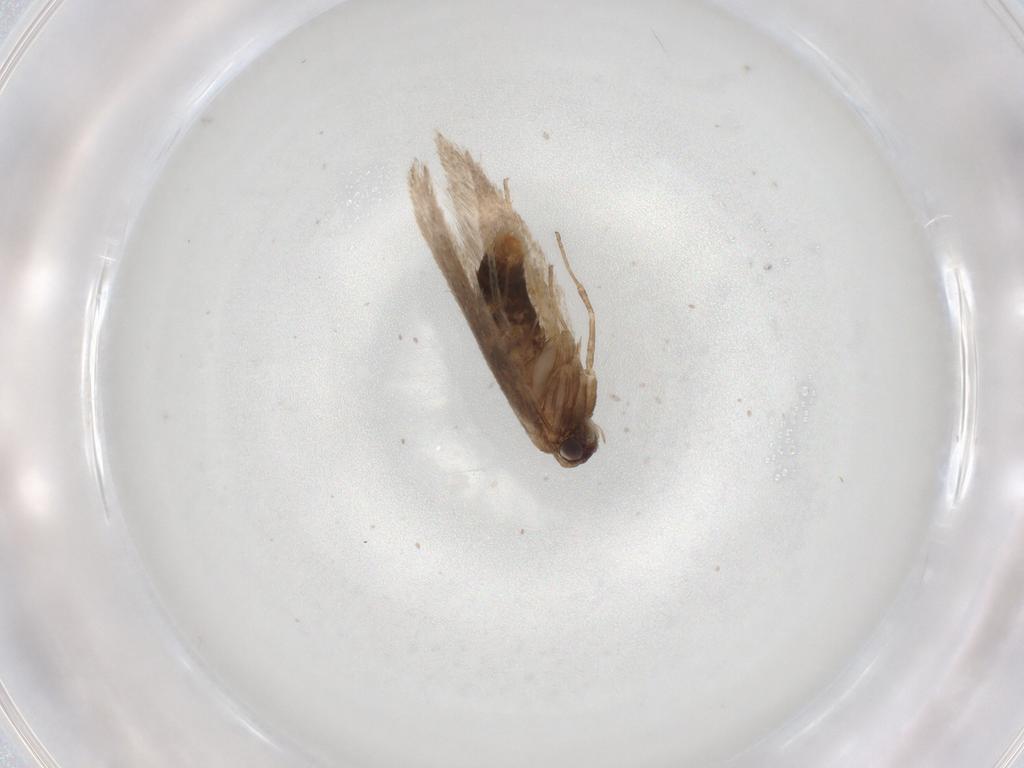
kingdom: Animalia
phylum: Arthropoda
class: Insecta
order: Lepidoptera
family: Nepticulidae
